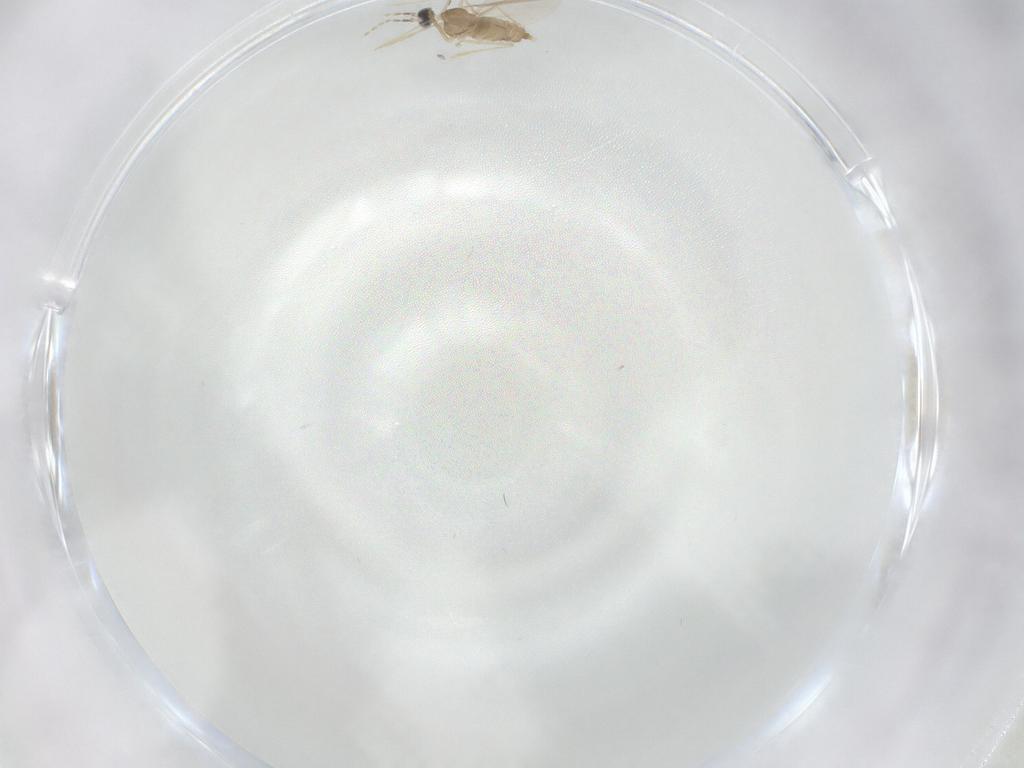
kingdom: Animalia
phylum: Arthropoda
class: Insecta
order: Diptera
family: Cecidomyiidae
